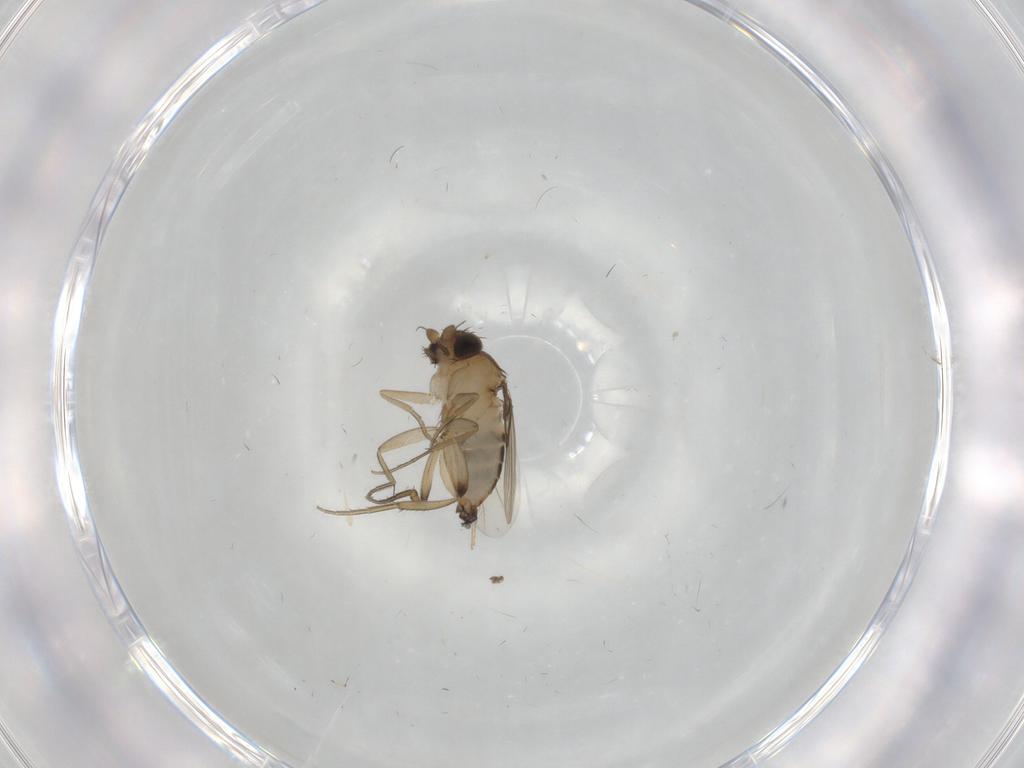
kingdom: Animalia
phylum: Arthropoda
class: Insecta
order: Diptera
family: Phoridae
